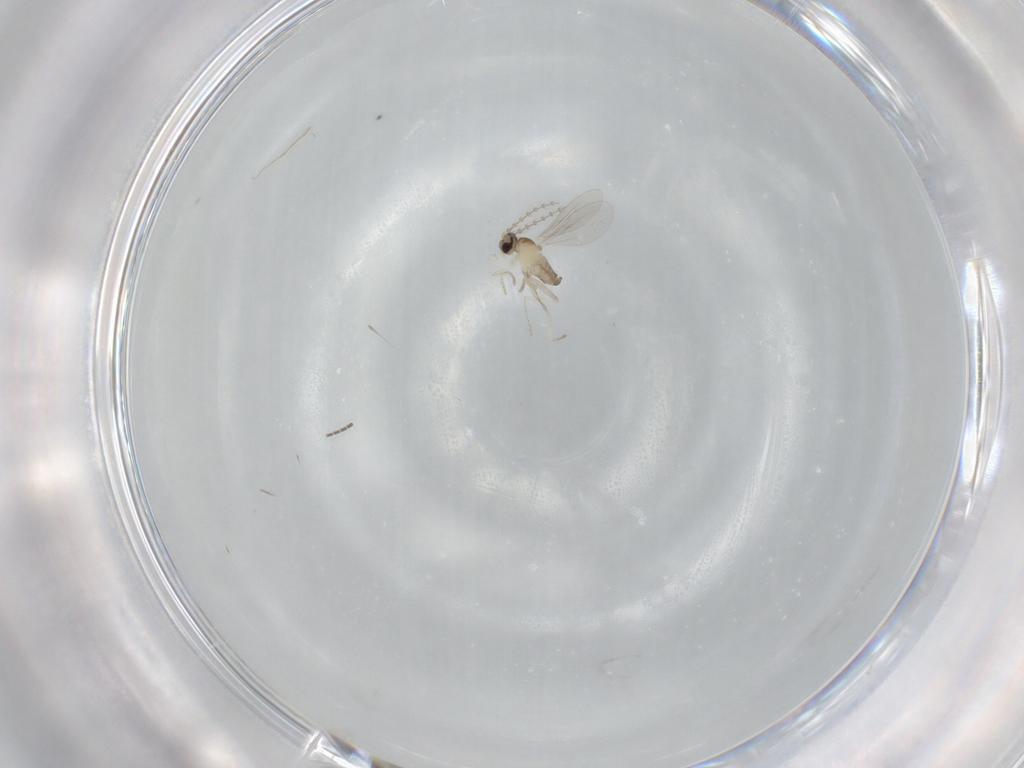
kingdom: Animalia
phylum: Arthropoda
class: Insecta
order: Diptera
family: Cecidomyiidae
